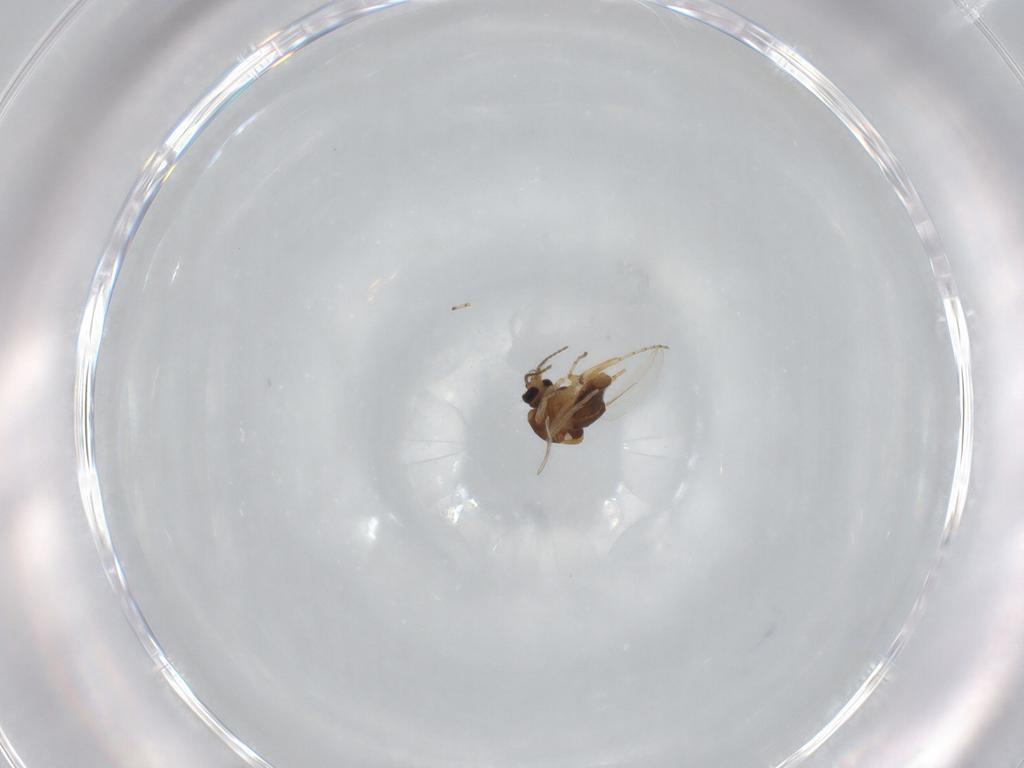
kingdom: Animalia
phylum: Arthropoda
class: Insecta
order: Diptera
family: Ceratopogonidae
